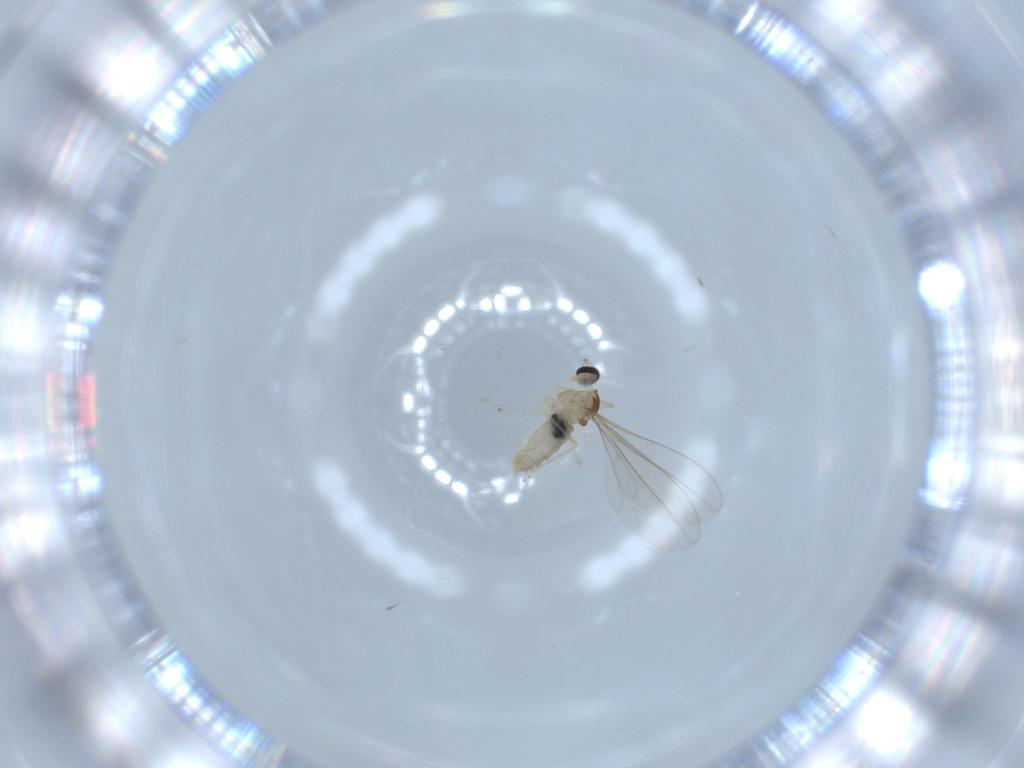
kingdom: Animalia
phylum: Arthropoda
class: Insecta
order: Diptera
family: Cecidomyiidae
